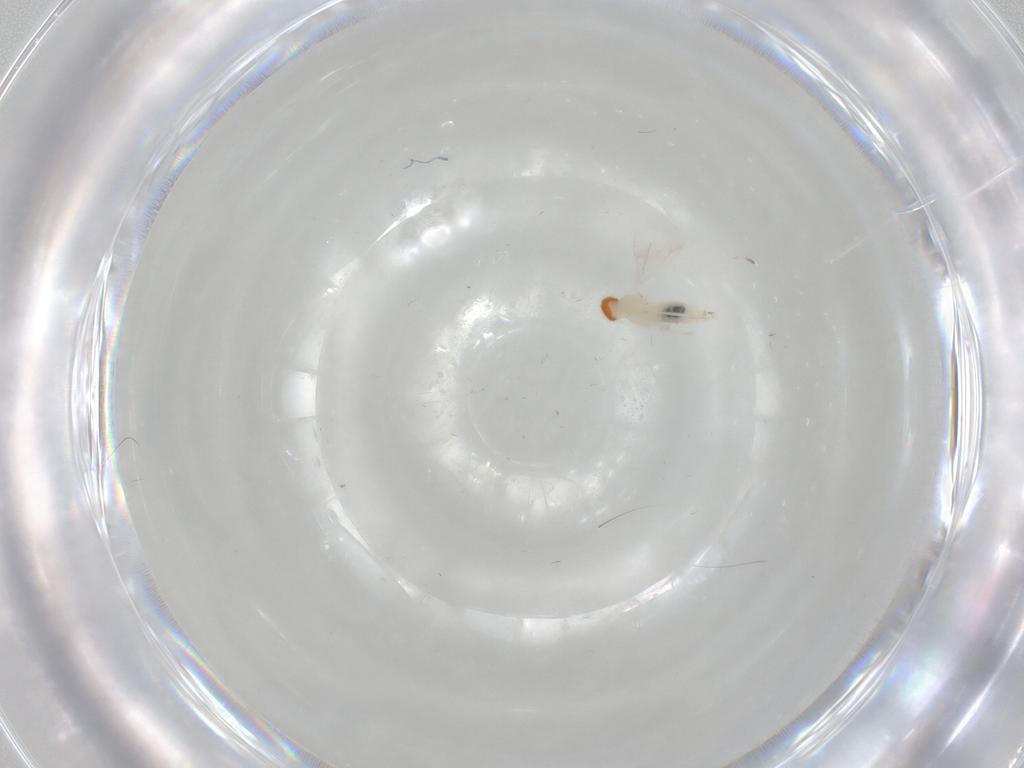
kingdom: Animalia
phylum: Arthropoda
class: Insecta
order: Diptera
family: Cecidomyiidae
